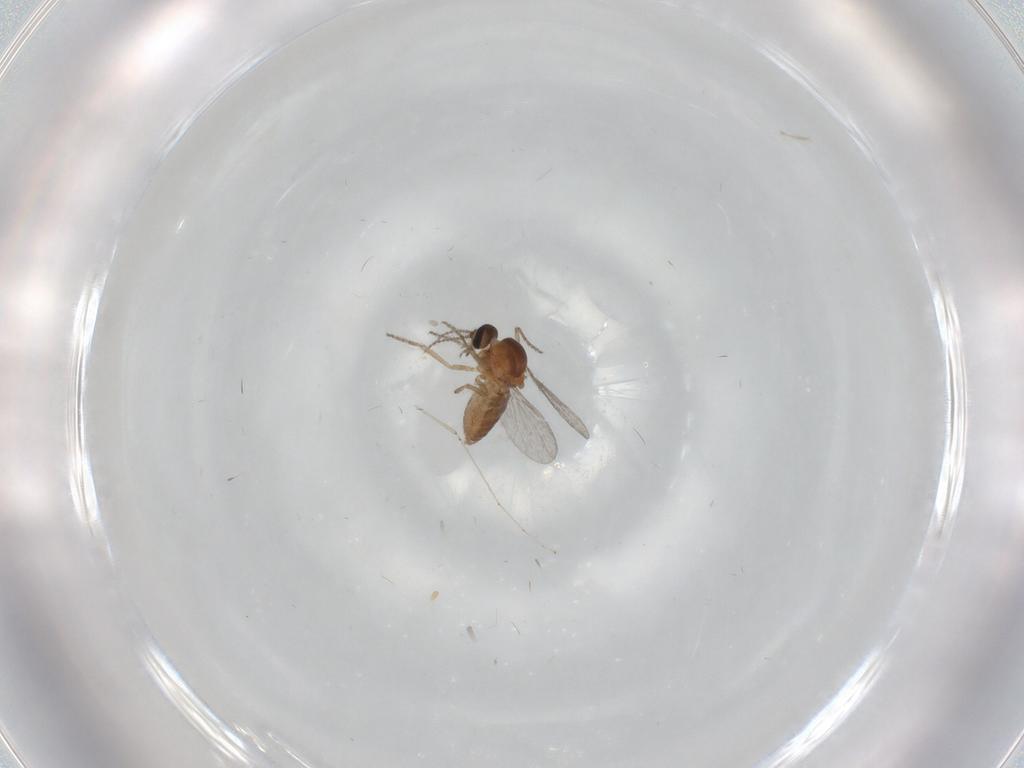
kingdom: Animalia
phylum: Arthropoda
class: Insecta
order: Diptera
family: Ceratopogonidae
